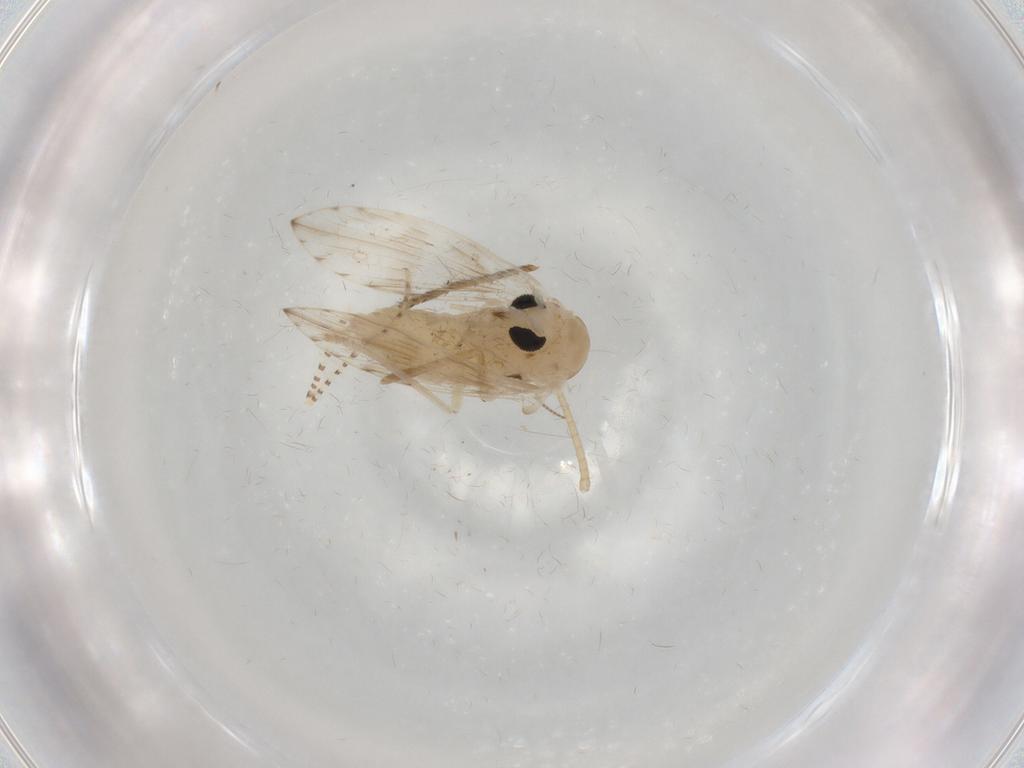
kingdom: Animalia
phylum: Arthropoda
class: Insecta
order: Diptera
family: Psychodidae
